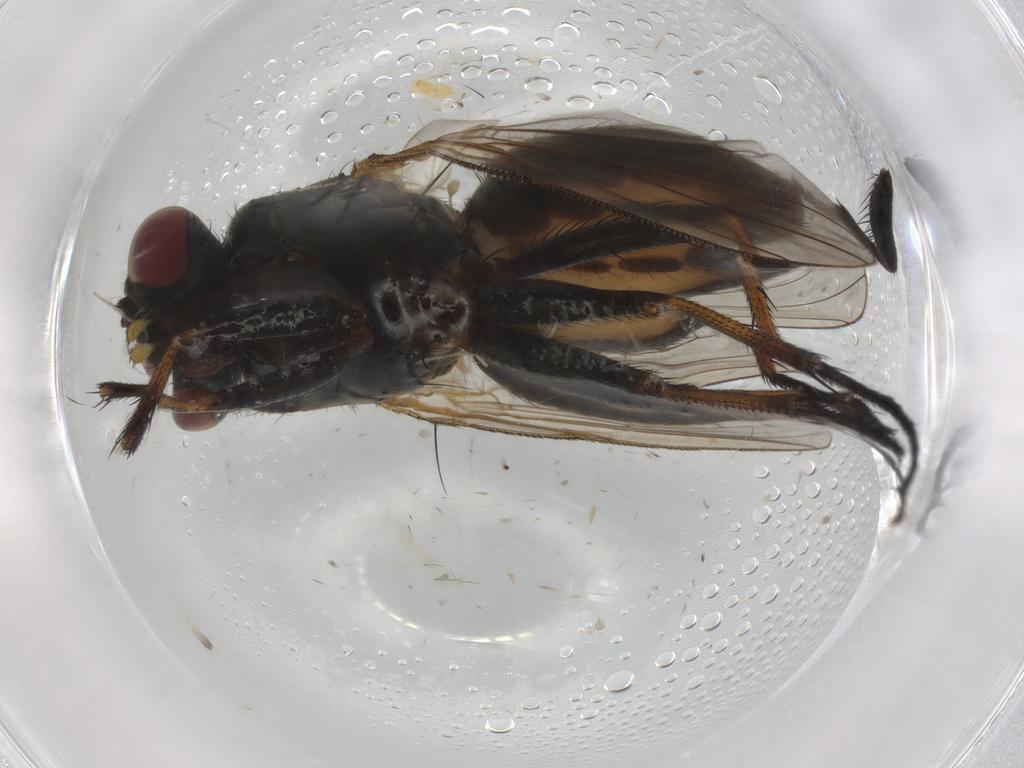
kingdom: Animalia
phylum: Arthropoda
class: Insecta
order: Diptera
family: Muscidae
